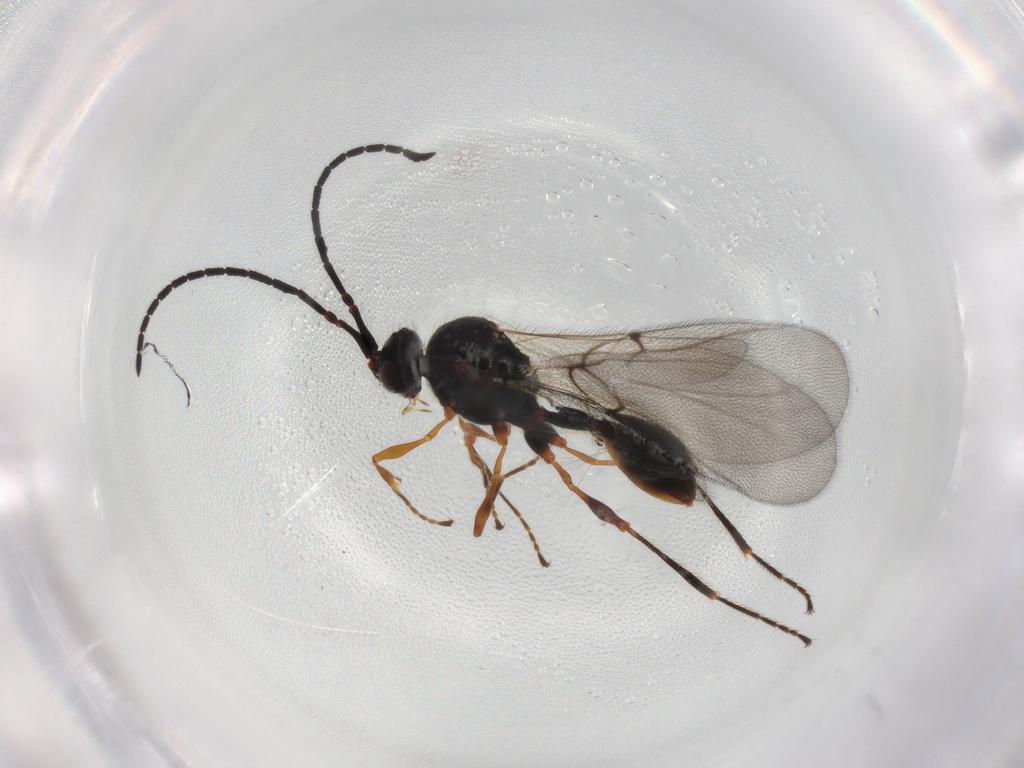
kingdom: Animalia
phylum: Arthropoda
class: Insecta
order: Hymenoptera
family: Diapriidae
